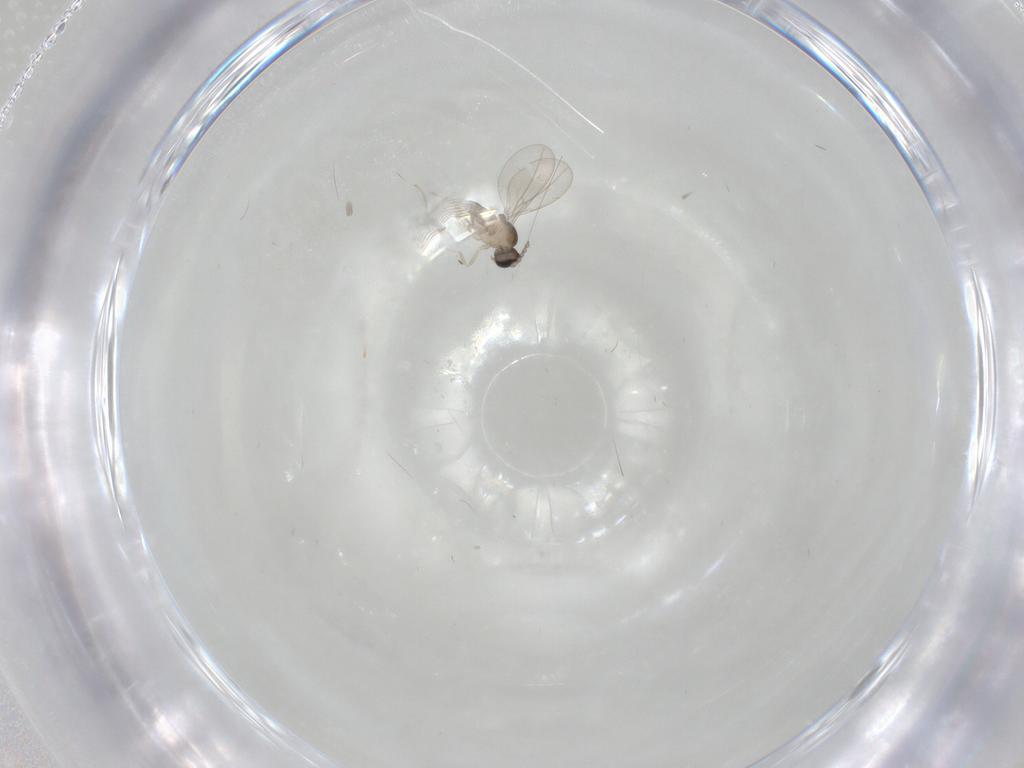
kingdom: Animalia
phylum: Arthropoda
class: Insecta
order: Diptera
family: Cecidomyiidae
